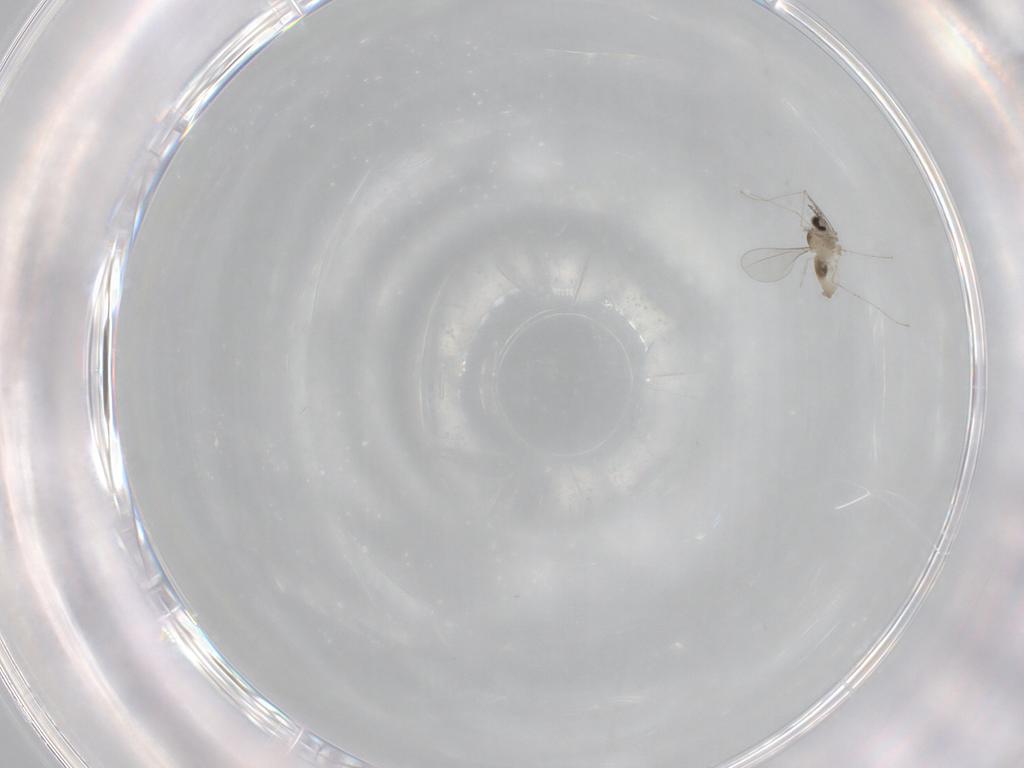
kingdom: Animalia
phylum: Arthropoda
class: Insecta
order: Diptera
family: Cecidomyiidae
